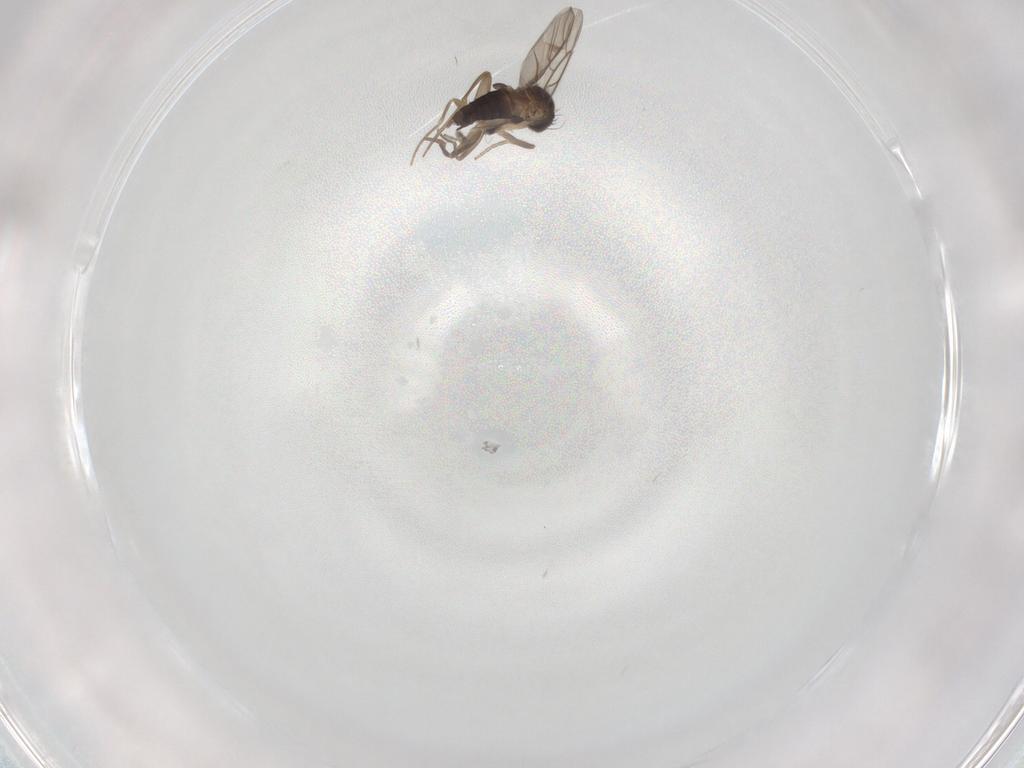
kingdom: Animalia
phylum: Arthropoda
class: Insecta
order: Diptera
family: Phoridae
